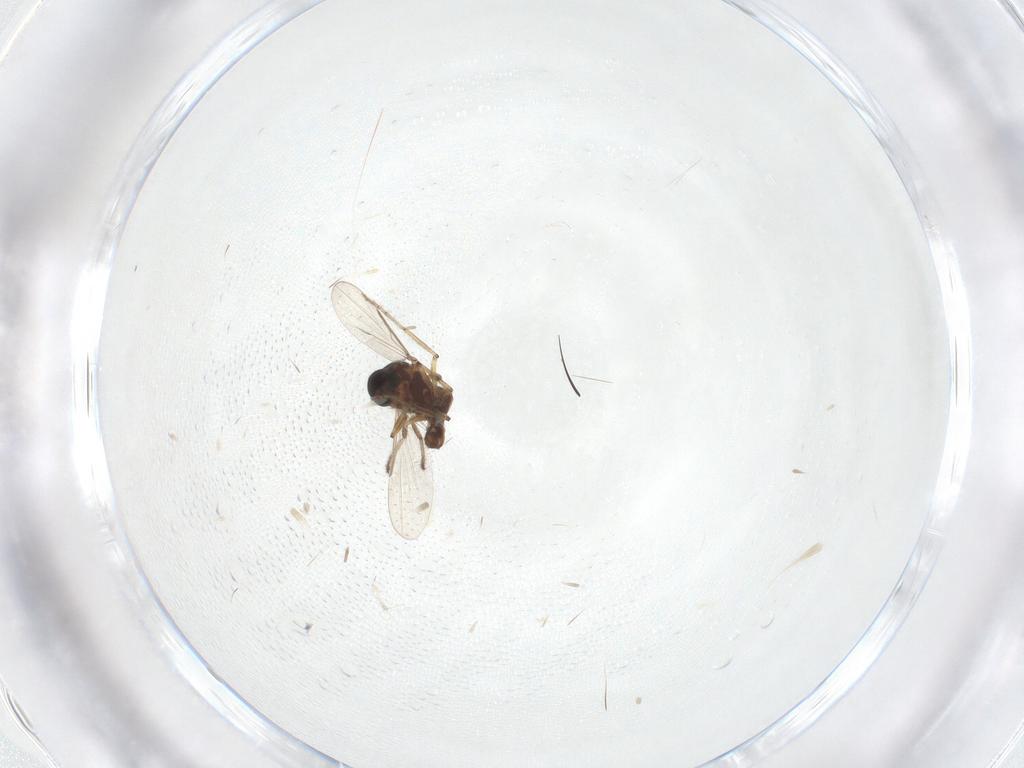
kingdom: Animalia
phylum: Arthropoda
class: Insecta
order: Diptera
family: Ceratopogonidae
